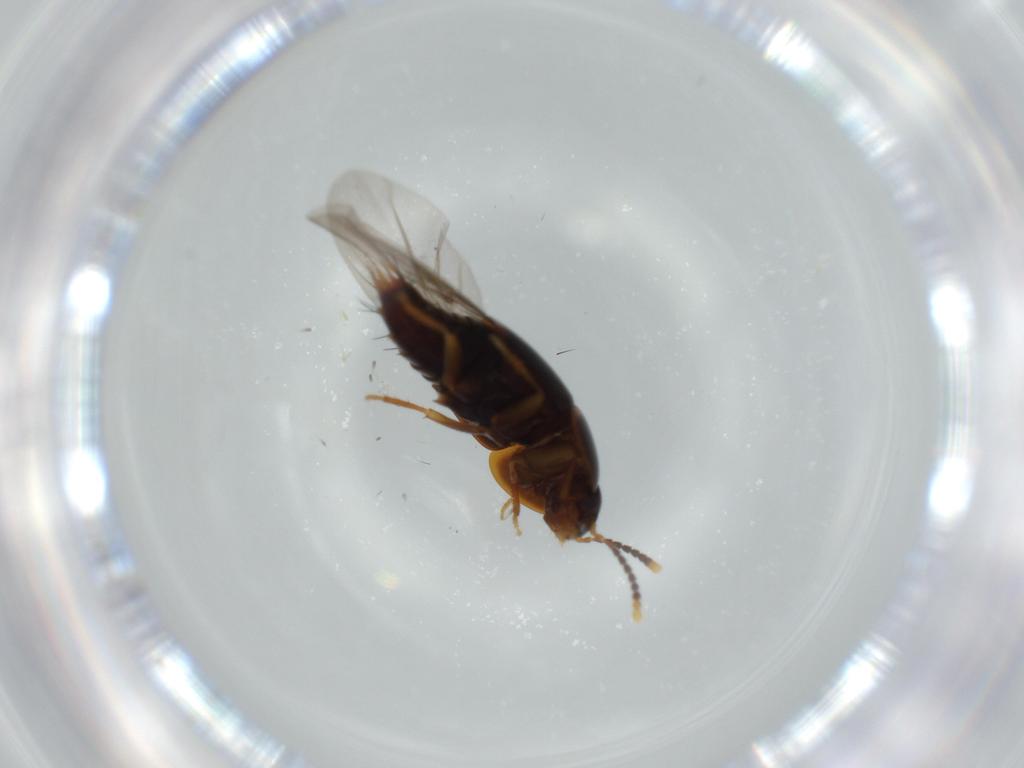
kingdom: Animalia
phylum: Arthropoda
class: Insecta
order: Coleoptera
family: Staphylinidae
